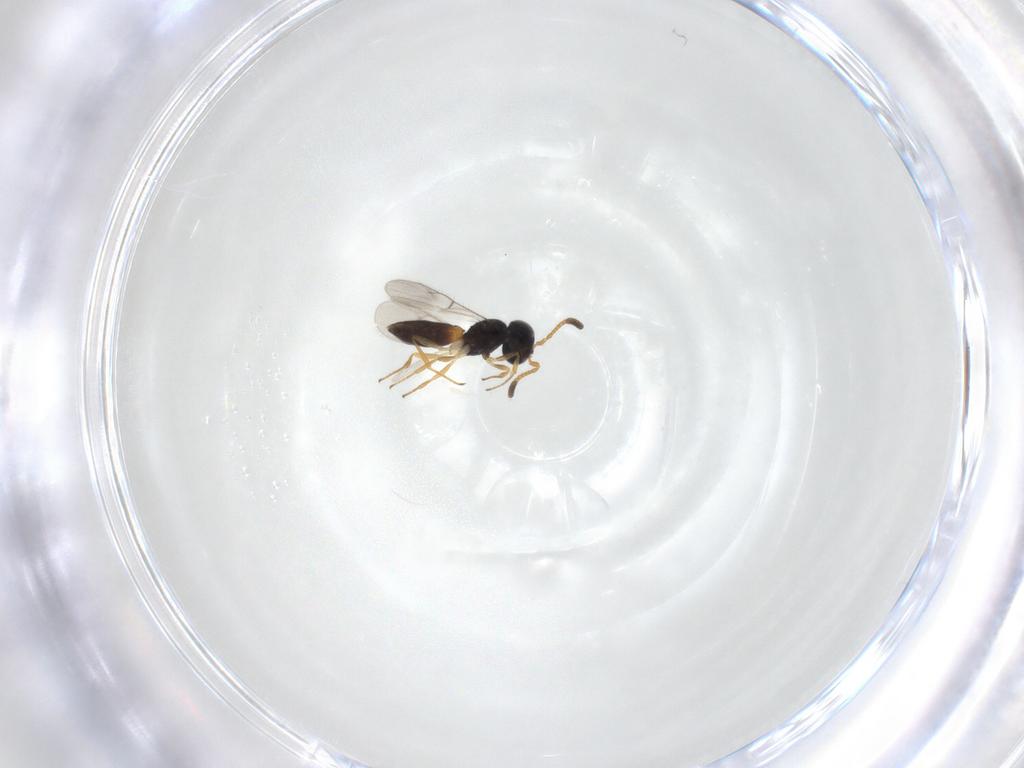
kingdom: Animalia
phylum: Arthropoda
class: Insecta
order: Hymenoptera
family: Scelionidae
